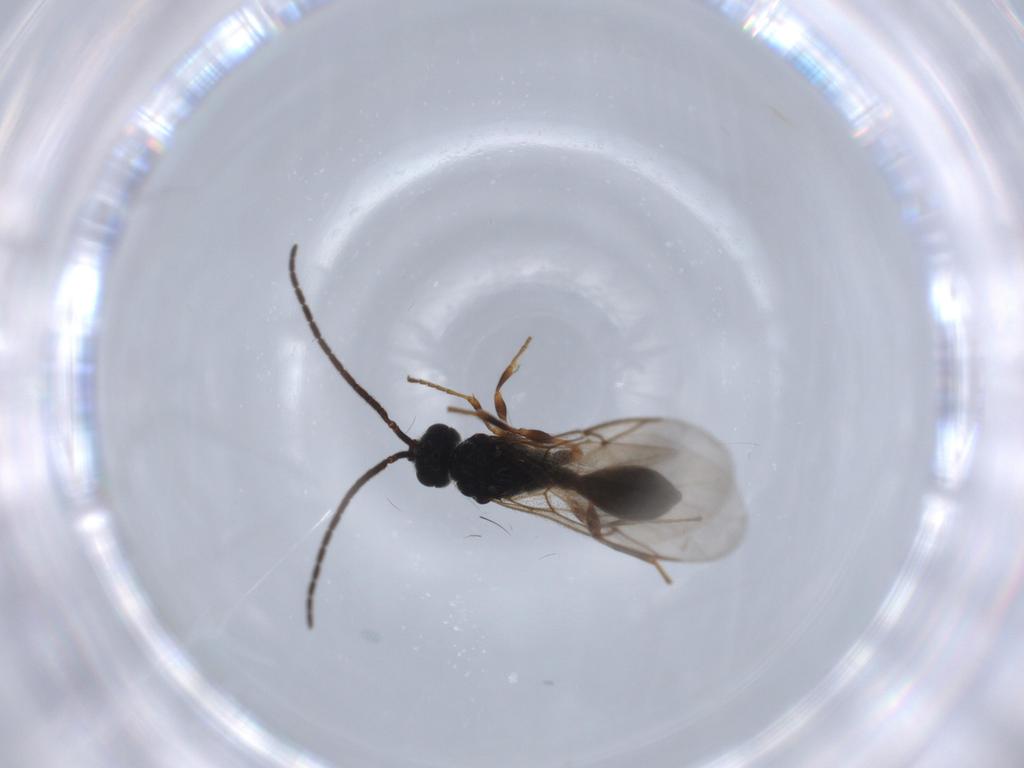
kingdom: Animalia
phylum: Arthropoda
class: Insecta
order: Hymenoptera
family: Diapriidae
